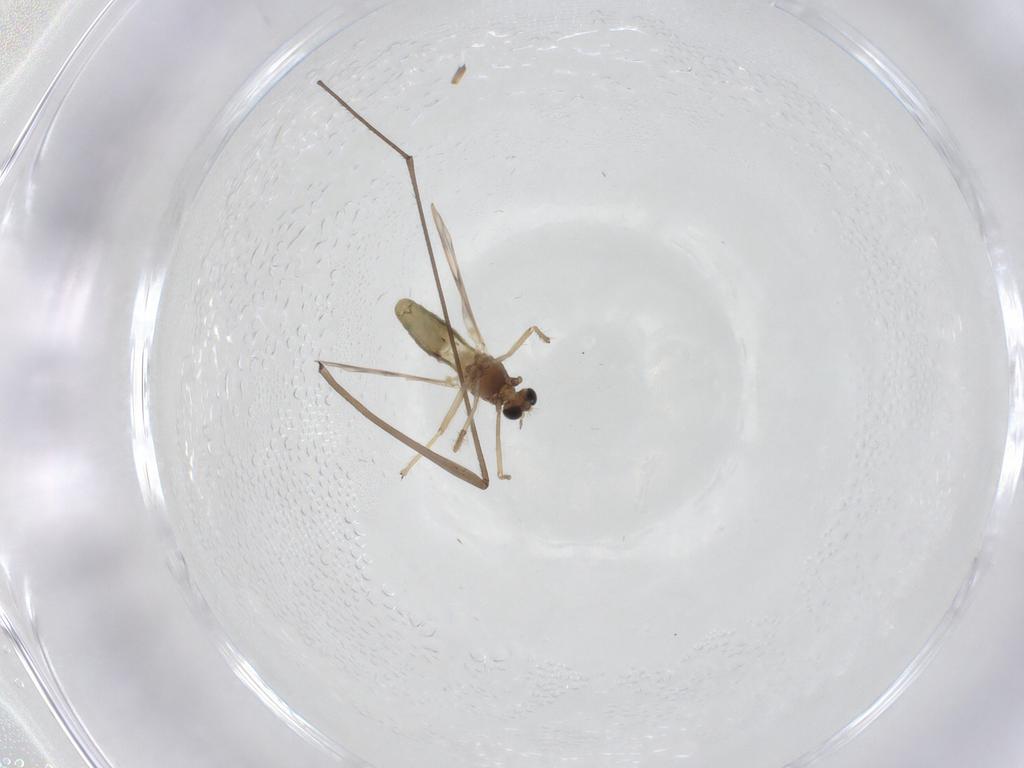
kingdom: Animalia
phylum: Arthropoda
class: Insecta
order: Diptera
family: Chironomidae
